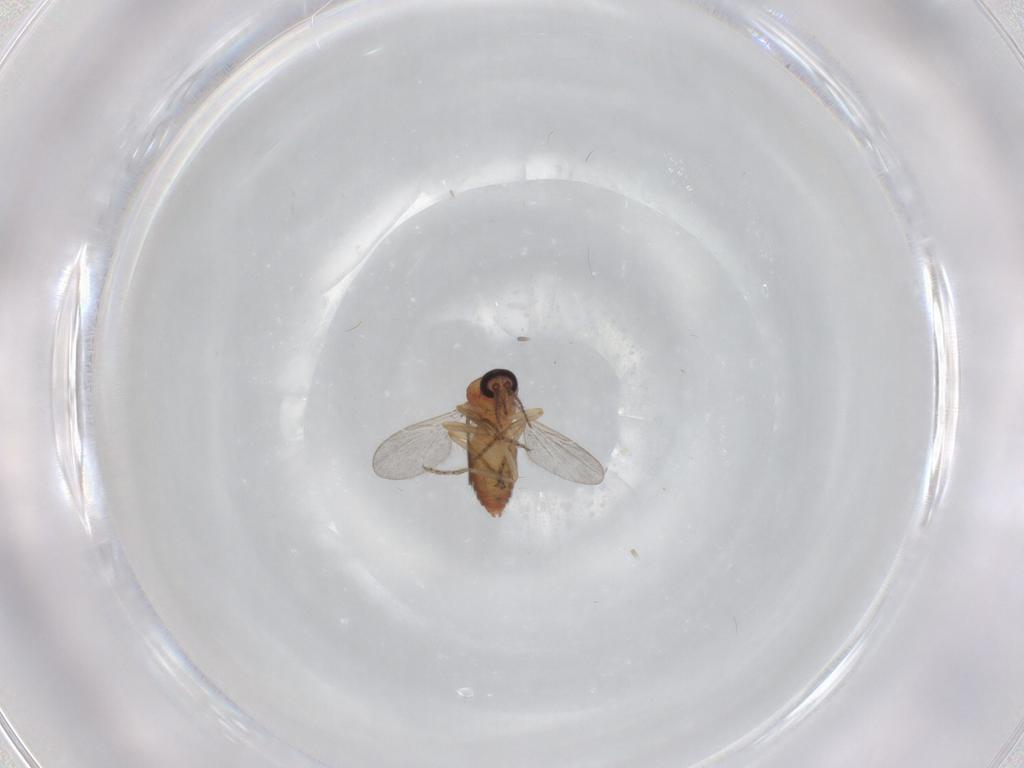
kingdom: Animalia
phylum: Arthropoda
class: Insecta
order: Diptera
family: Ceratopogonidae
